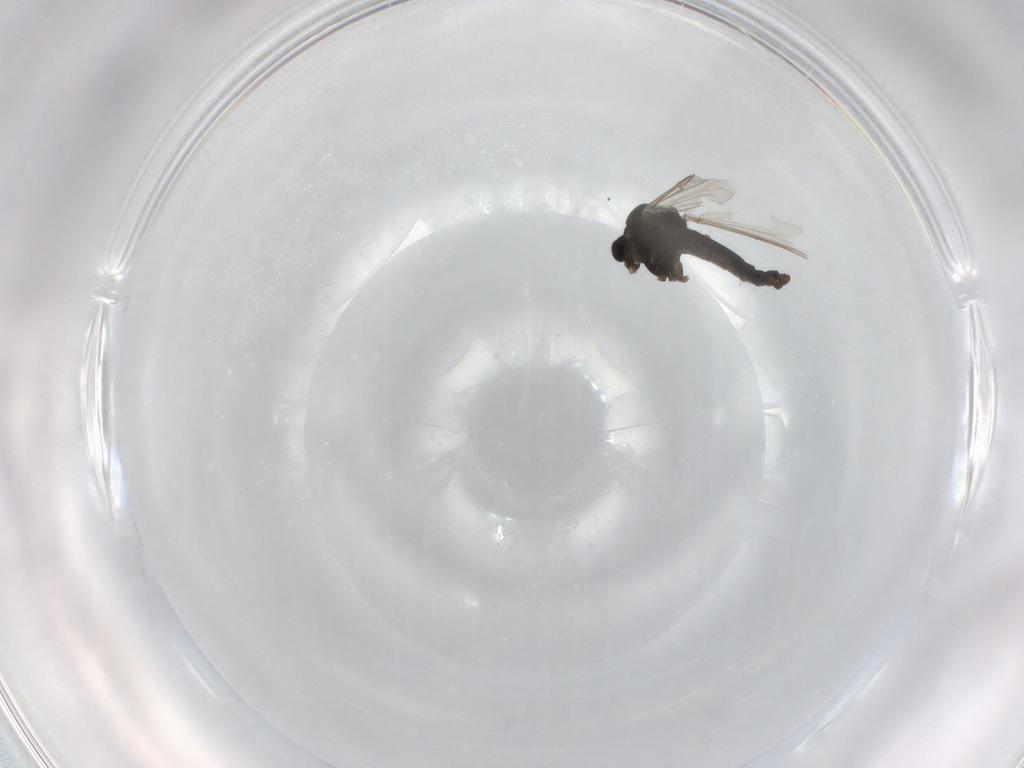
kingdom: Animalia
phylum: Arthropoda
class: Insecta
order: Diptera
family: Chironomidae
